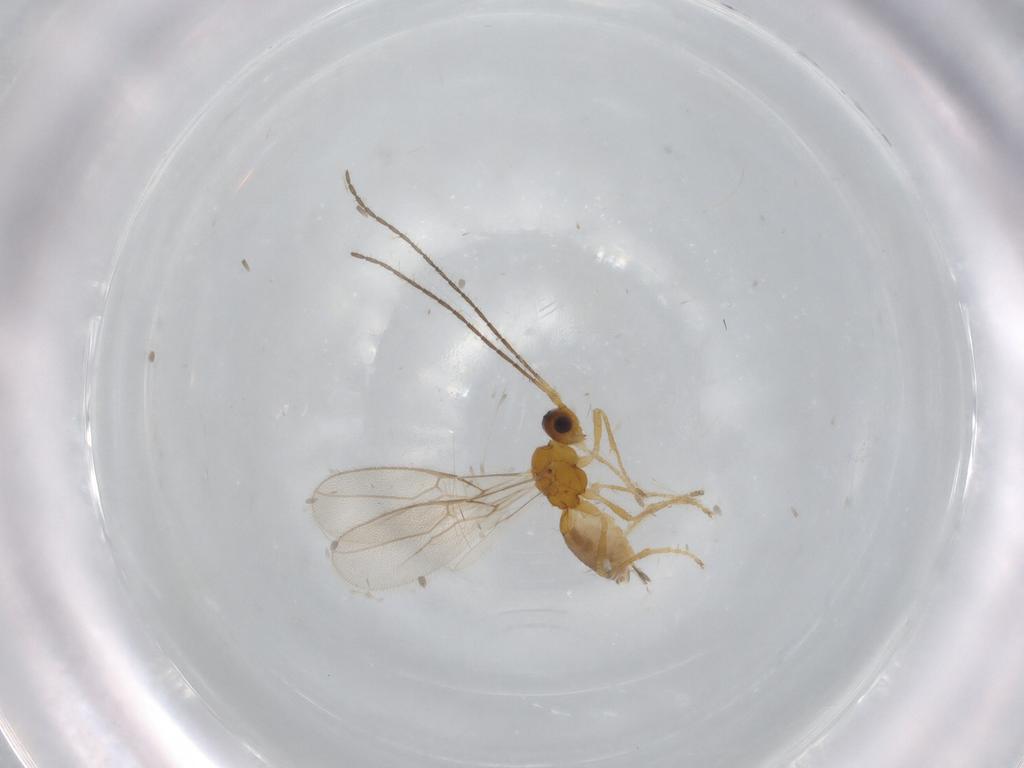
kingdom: Animalia
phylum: Arthropoda
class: Insecta
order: Hymenoptera
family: Braconidae
